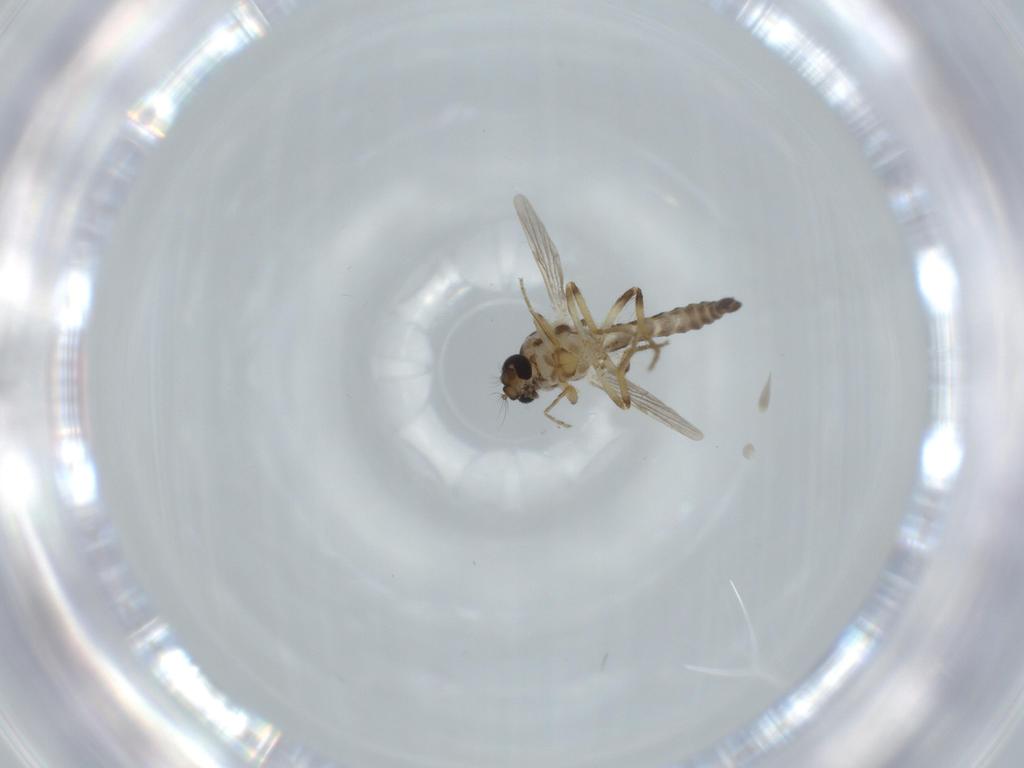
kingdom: Animalia
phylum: Arthropoda
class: Insecta
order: Diptera
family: Ceratopogonidae
